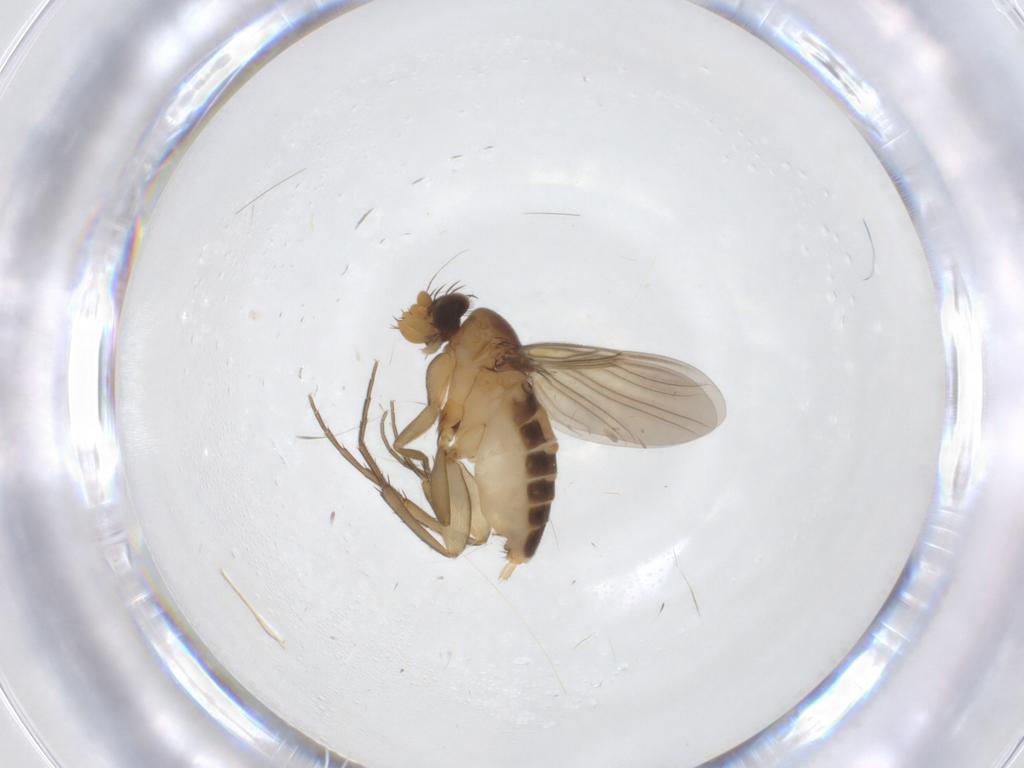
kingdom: Animalia
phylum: Arthropoda
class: Insecta
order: Diptera
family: Phoridae
